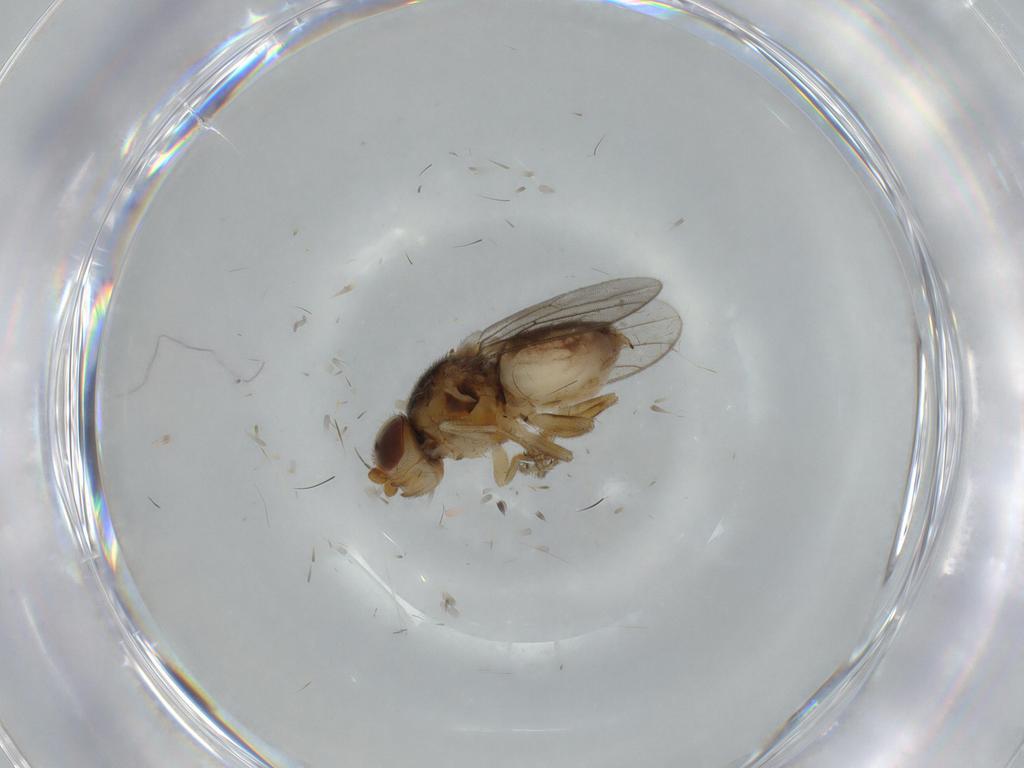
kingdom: Animalia
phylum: Arthropoda
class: Insecta
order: Diptera
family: Chloropidae
